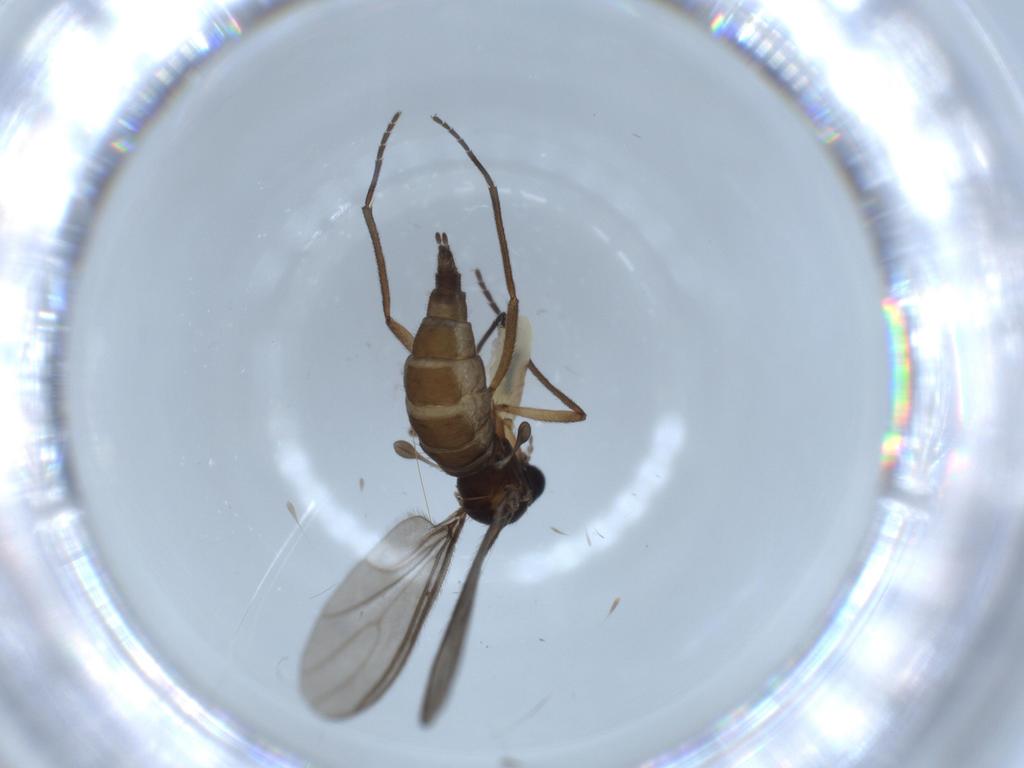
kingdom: Animalia
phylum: Arthropoda
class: Insecta
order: Diptera
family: Sciaridae
